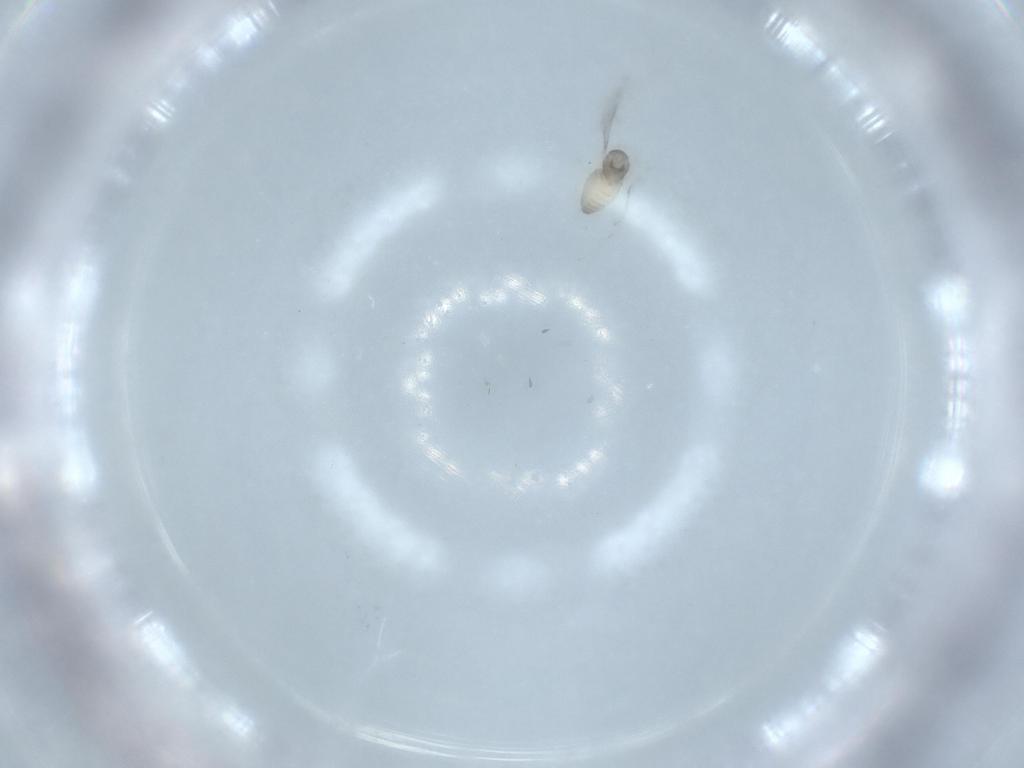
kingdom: Animalia
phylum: Arthropoda
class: Insecta
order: Diptera
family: Cecidomyiidae
